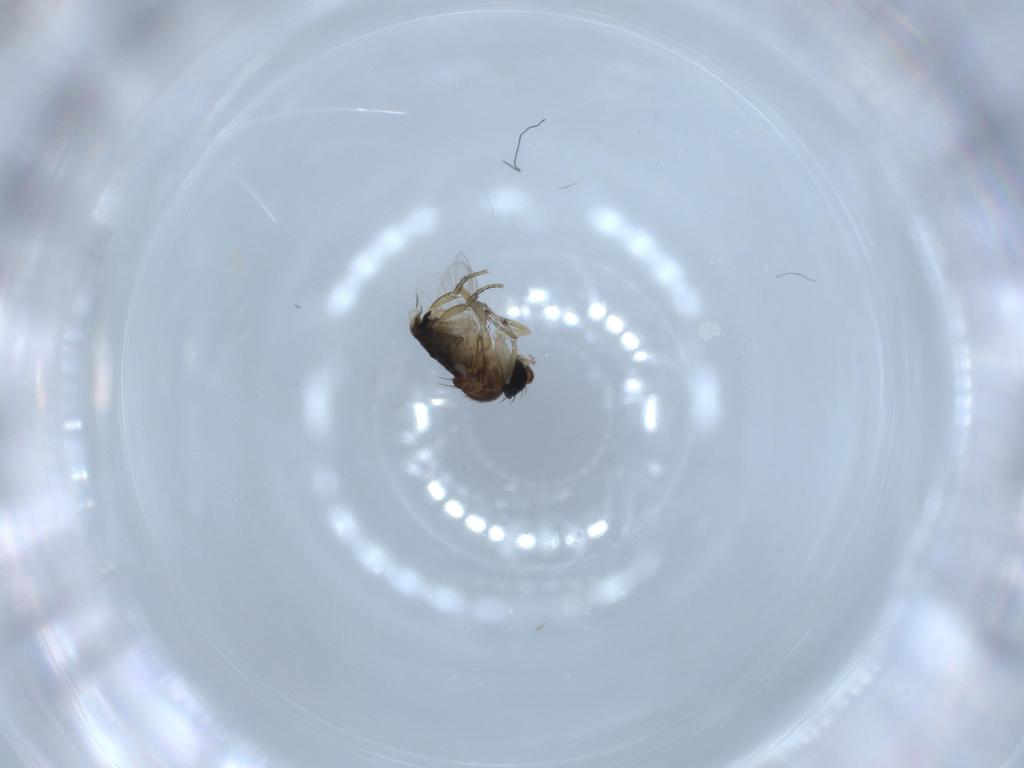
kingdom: Animalia
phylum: Arthropoda
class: Insecta
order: Diptera
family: Phoridae
